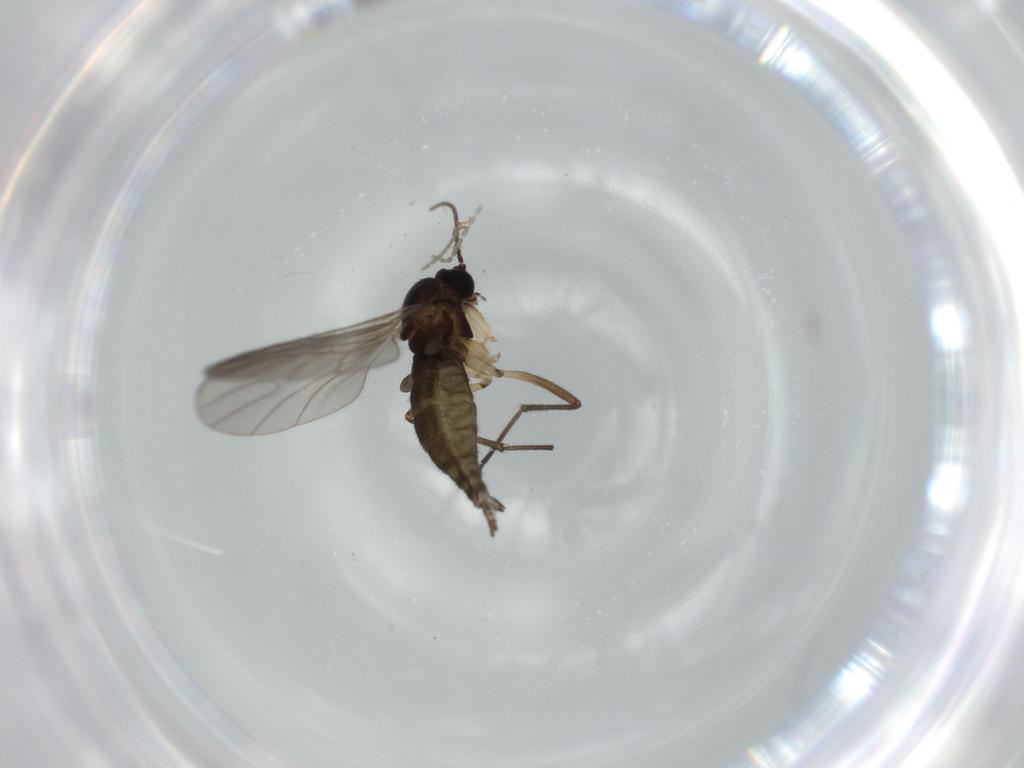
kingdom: Animalia
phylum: Arthropoda
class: Insecta
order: Diptera
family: Sciaridae
